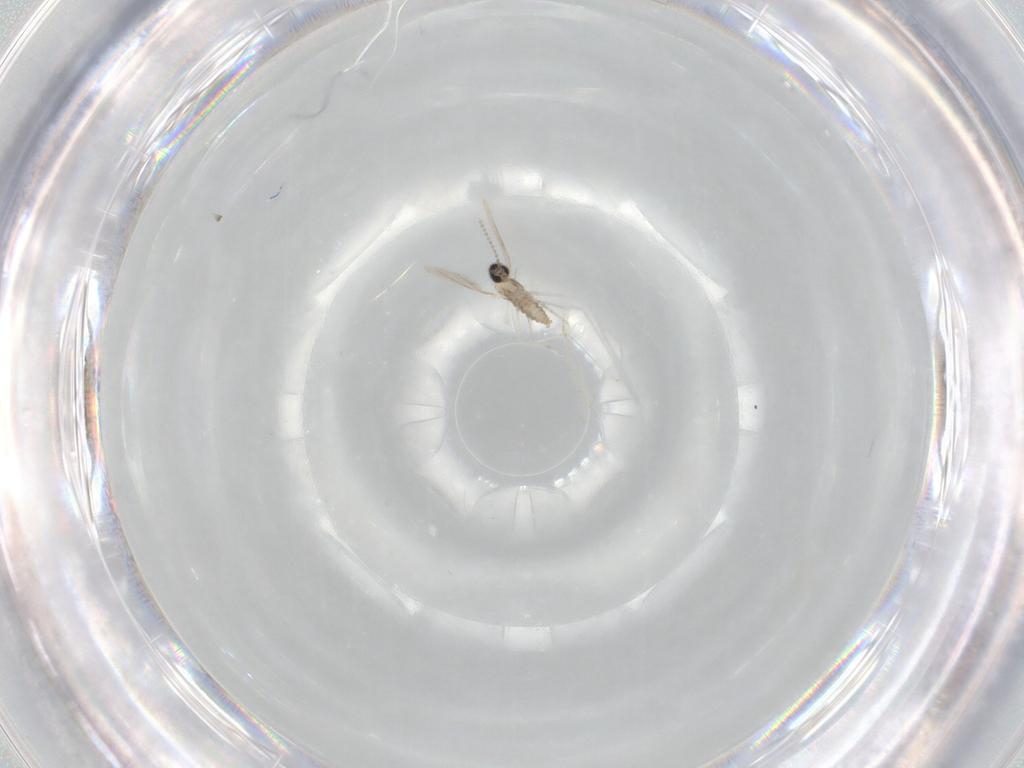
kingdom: Animalia
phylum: Arthropoda
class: Insecta
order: Diptera
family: Cecidomyiidae
